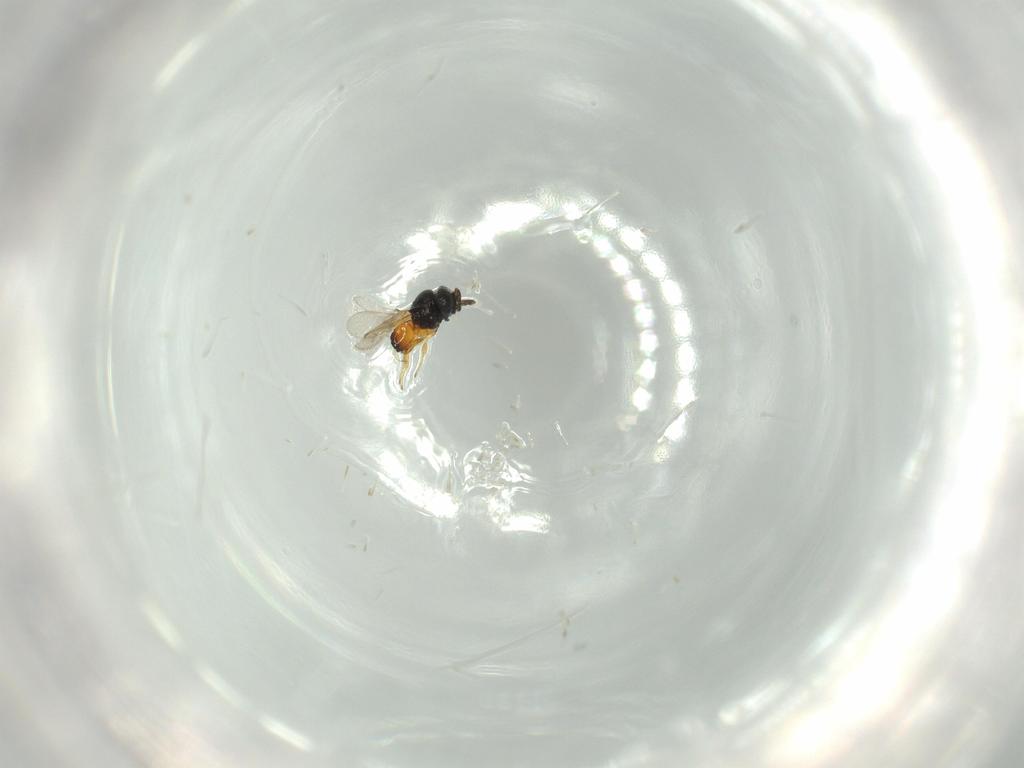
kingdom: Animalia
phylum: Arthropoda
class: Insecta
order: Hymenoptera
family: Scelionidae
